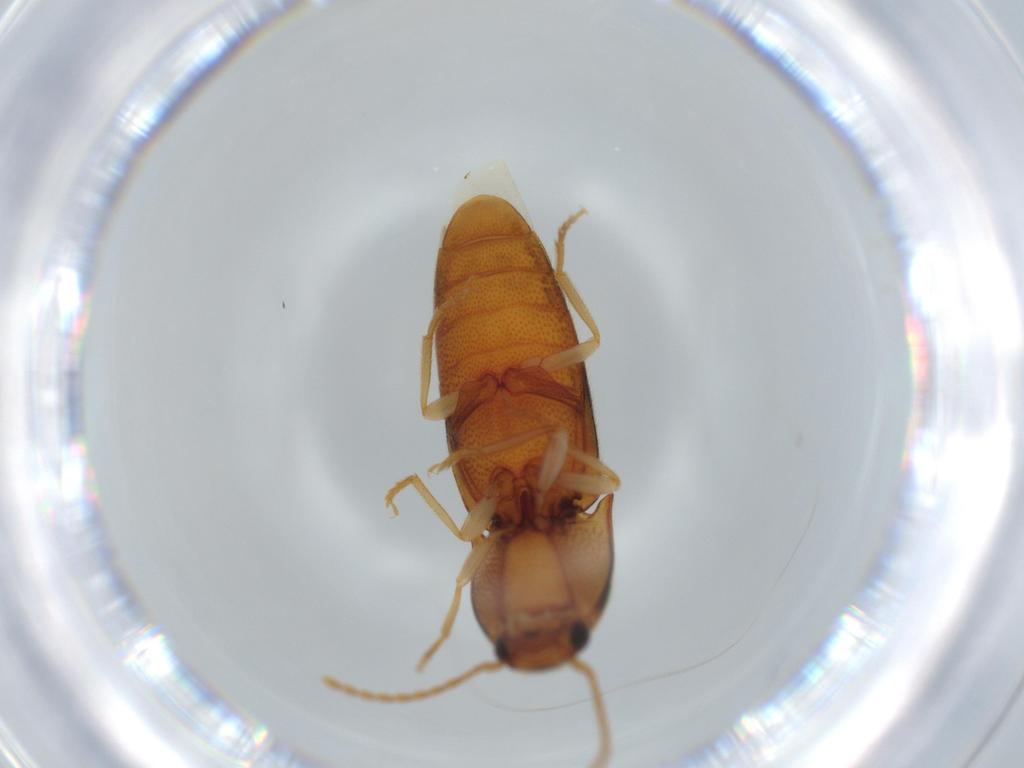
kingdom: Animalia
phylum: Arthropoda
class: Insecta
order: Coleoptera
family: Elateridae
